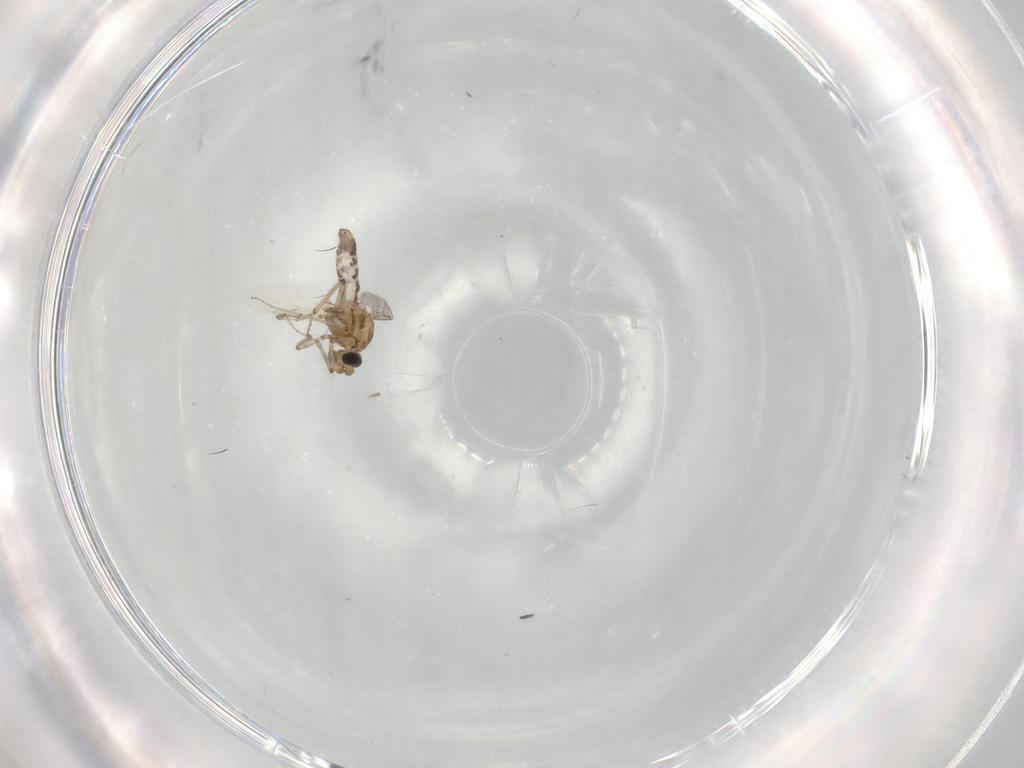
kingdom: Animalia
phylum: Arthropoda
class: Insecta
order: Diptera
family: Ceratopogonidae
